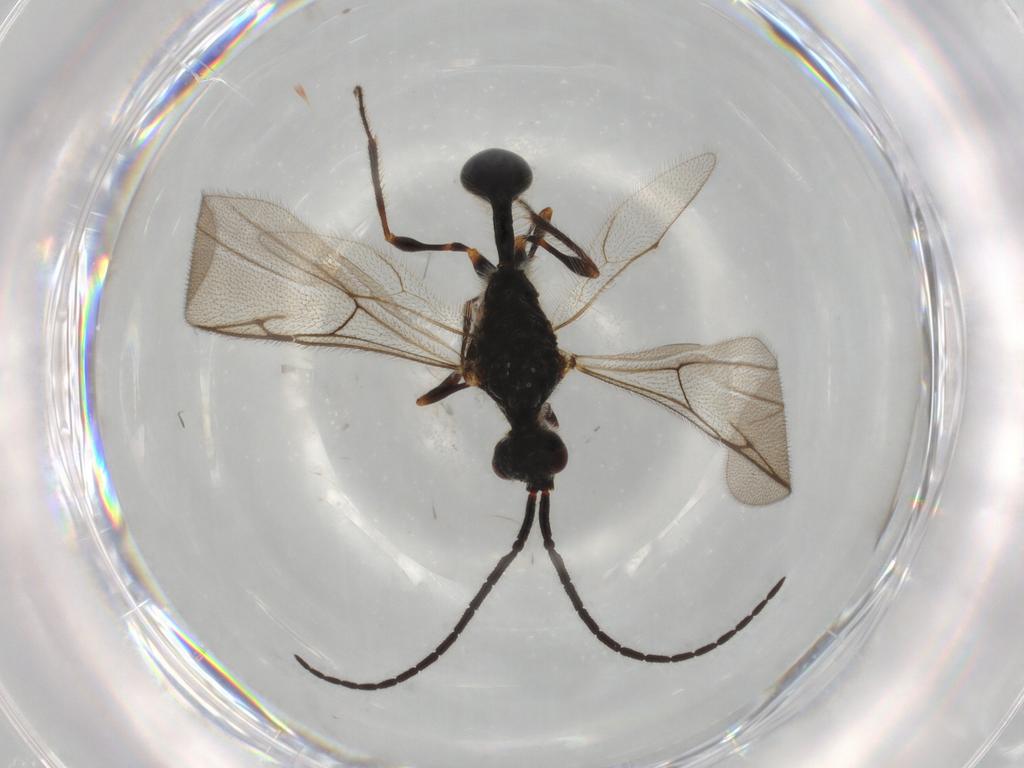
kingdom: Animalia
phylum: Arthropoda
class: Insecta
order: Hymenoptera
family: Diapriidae
